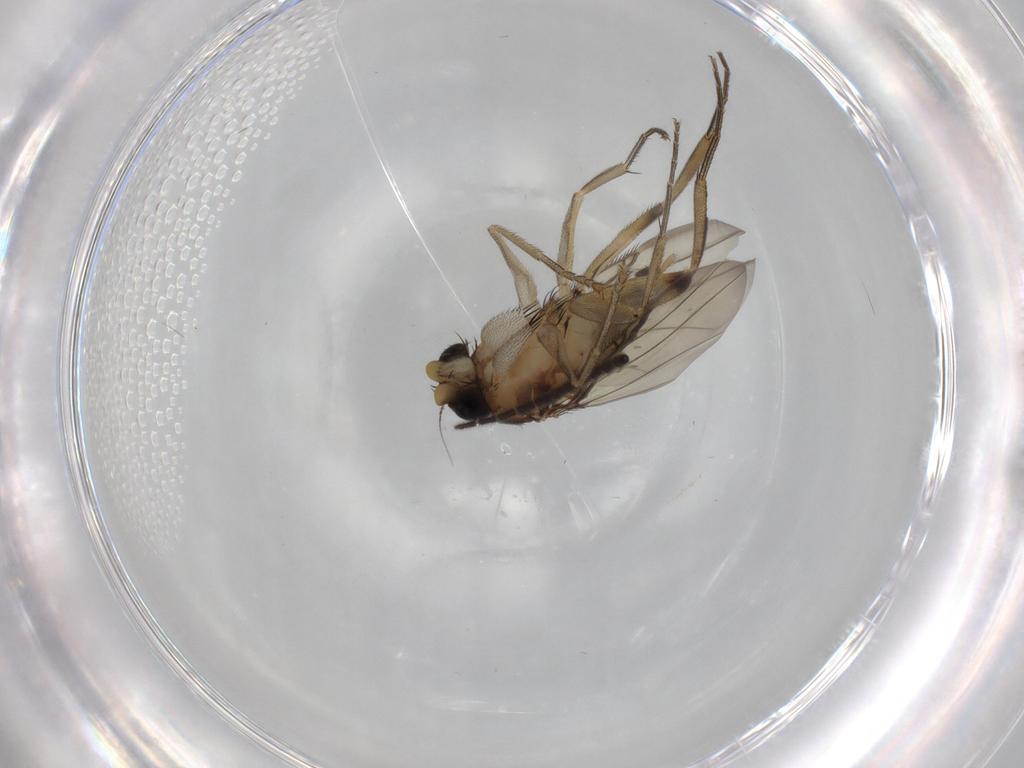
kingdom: Animalia
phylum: Arthropoda
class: Insecta
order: Diptera
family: Phoridae
